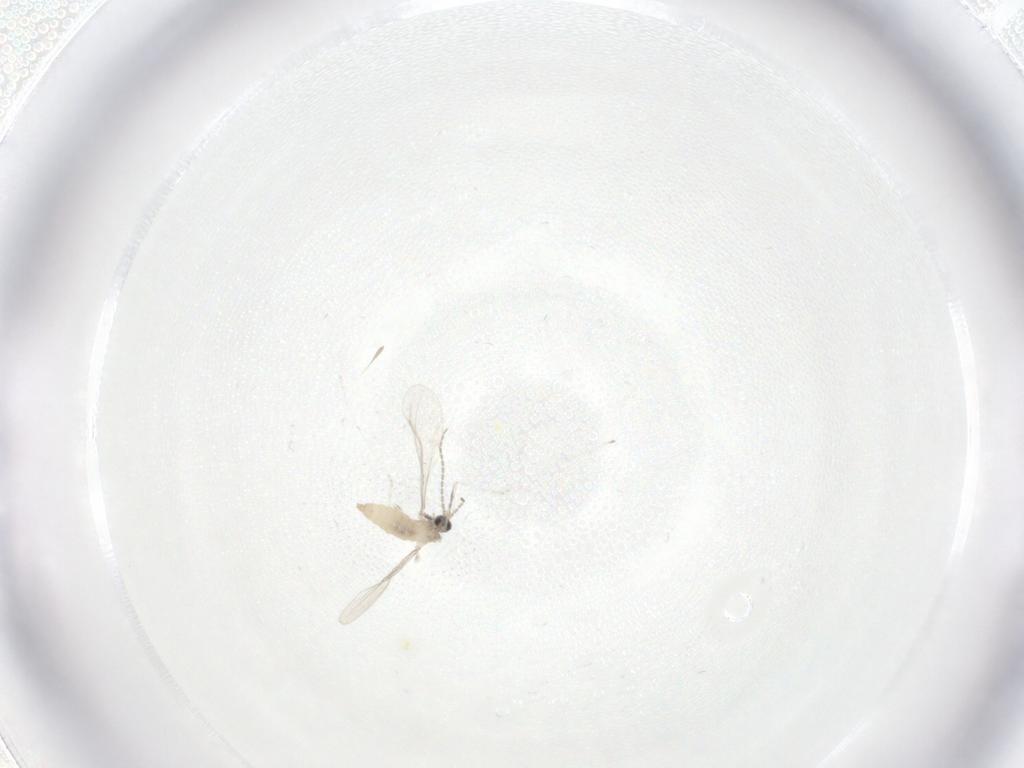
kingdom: Animalia
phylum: Arthropoda
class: Insecta
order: Diptera
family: Cecidomyiidae
